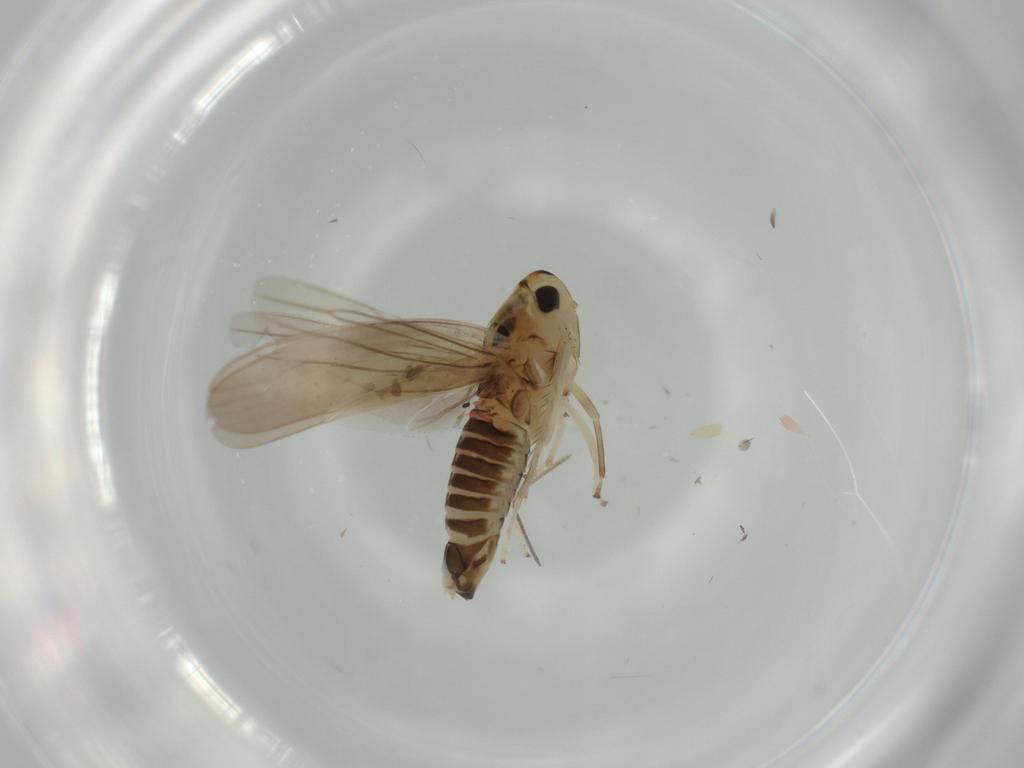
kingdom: Animalia
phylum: Arthropoda
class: Insecta
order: Hemiptera
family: Cicadellidae
